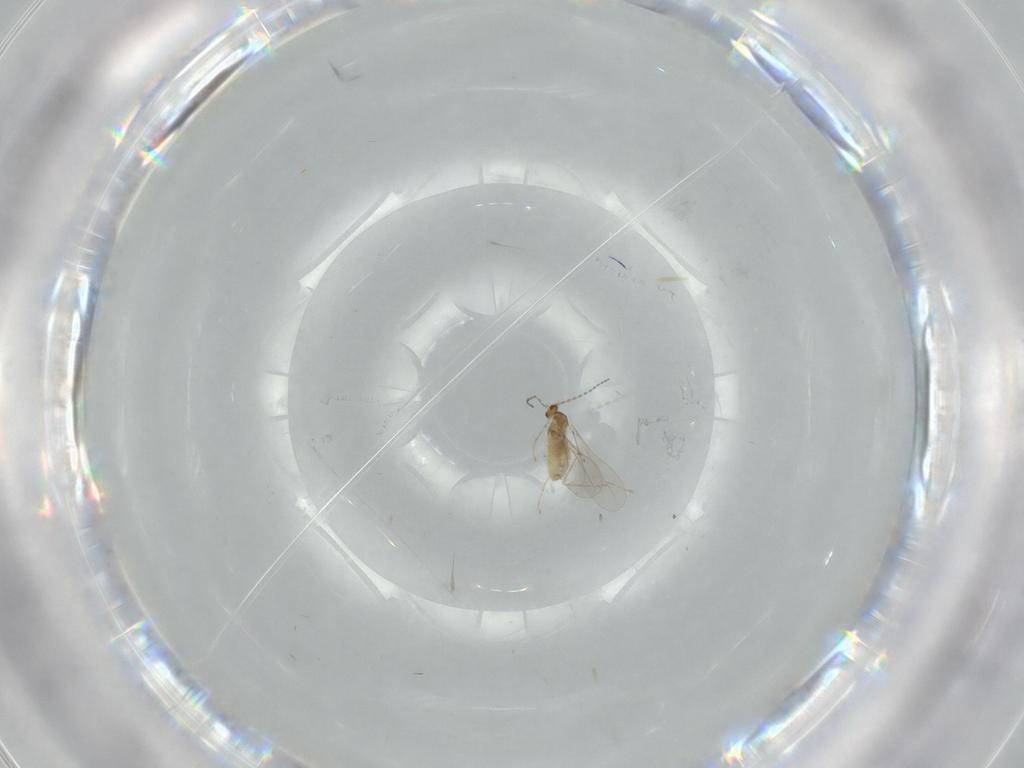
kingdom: Animalia
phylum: Arthropoda
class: Insecta
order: Diptera
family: Cecidomyiidae
